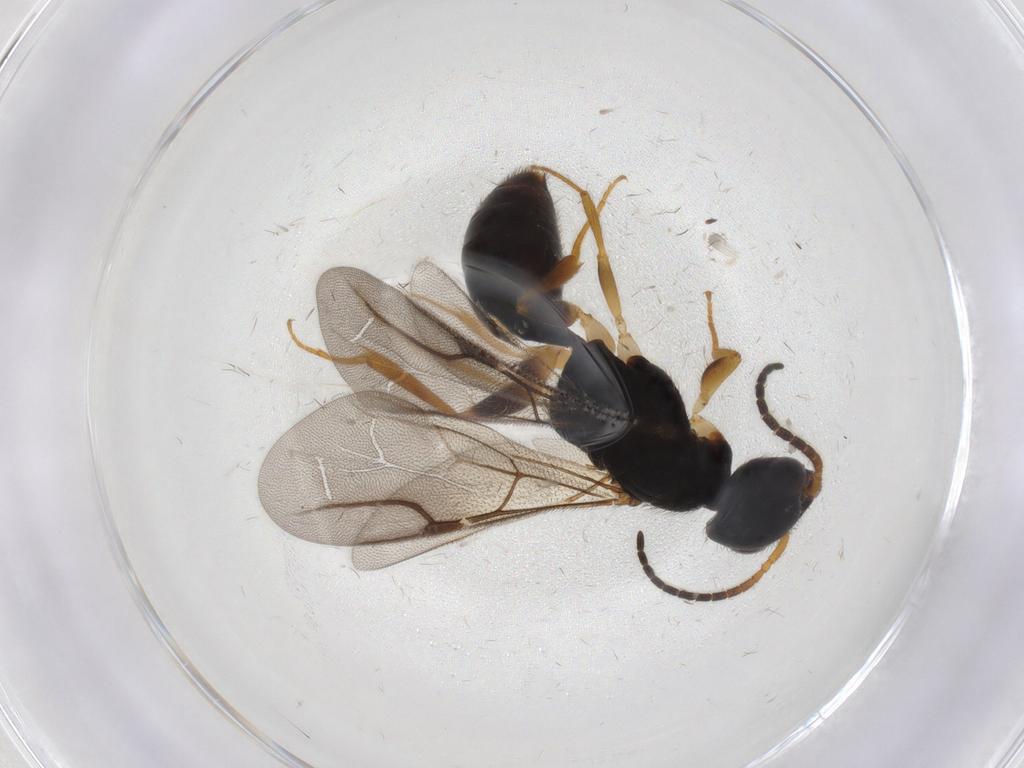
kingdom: Animalia
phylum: Arthropoda
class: Insecta
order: Hymenoptera
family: Bethylidae
